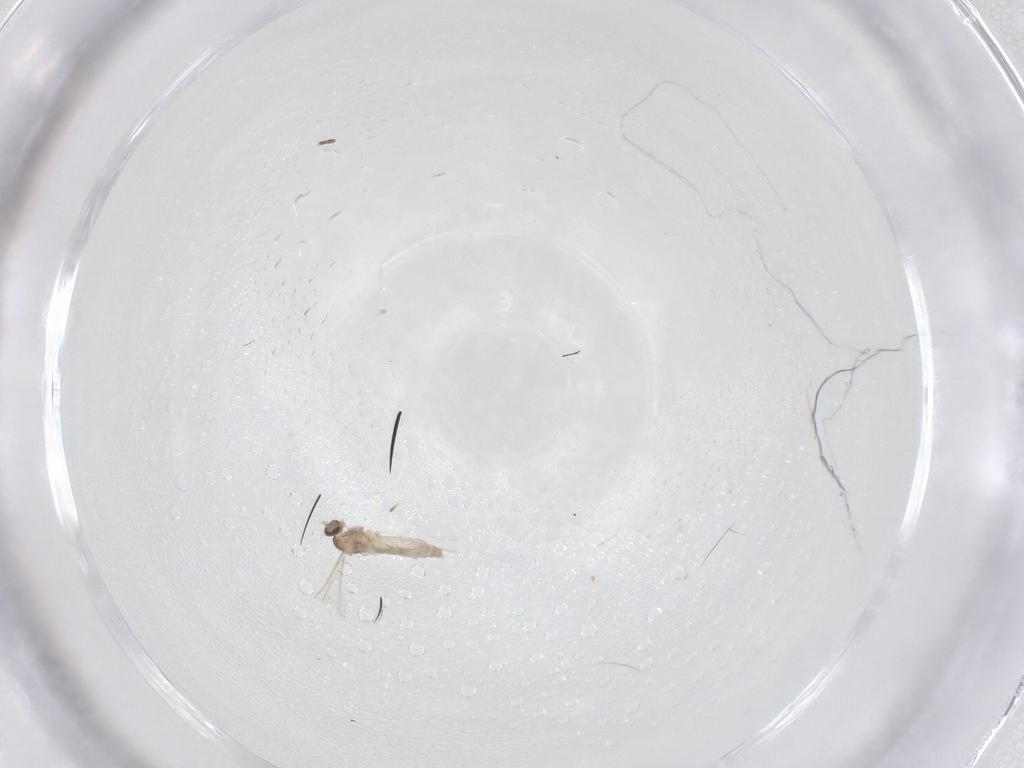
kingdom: Animalia
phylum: Arthropoda
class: Insecta
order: Diptera
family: Cecidomyiidae
